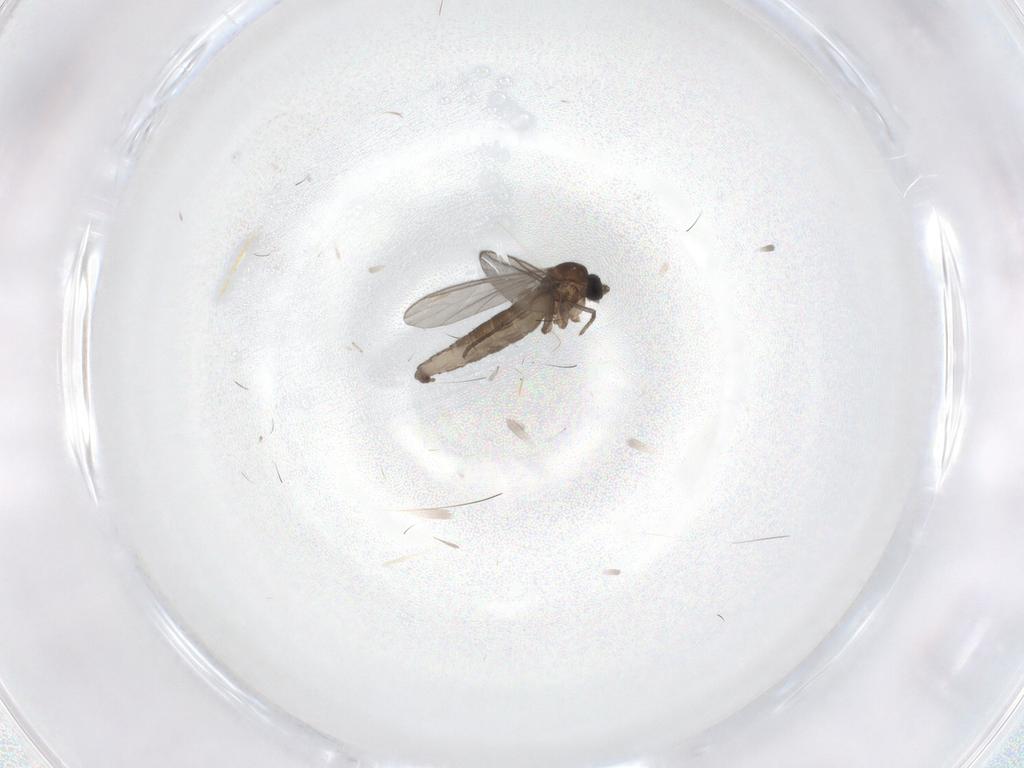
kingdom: Animalia
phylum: Arthropoda
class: Insecta
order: Diptera
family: Sciaridae
